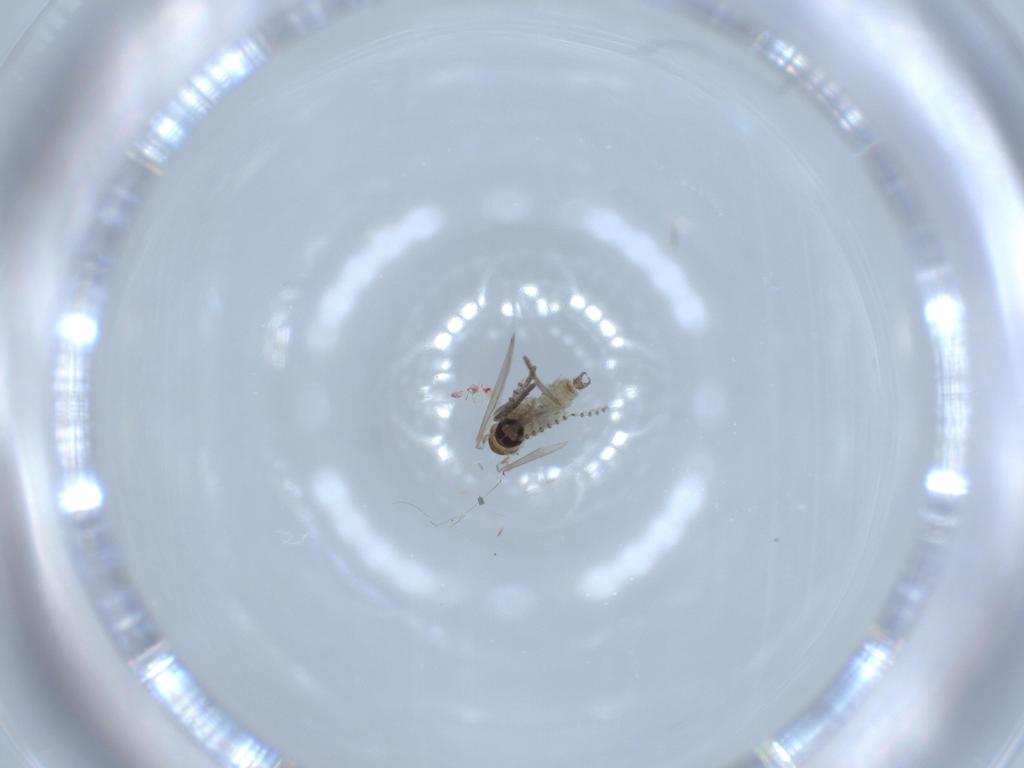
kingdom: Animalia
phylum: Arthropoda
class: Insecta
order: Diptera
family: Psychodidae
